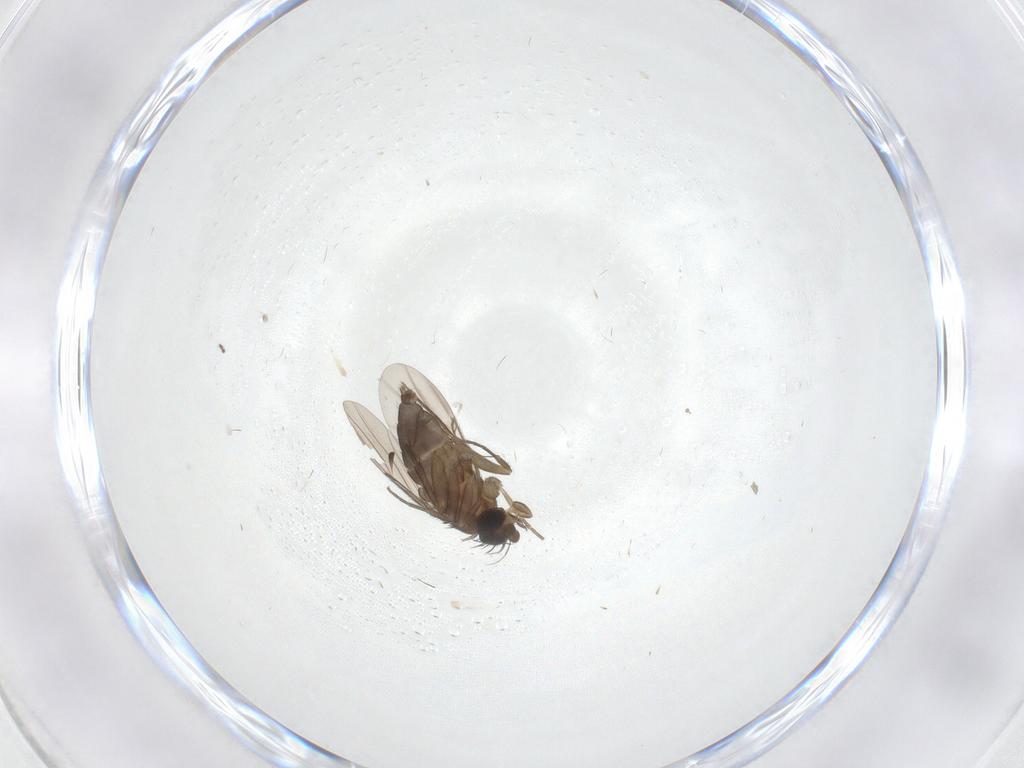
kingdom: Animalia
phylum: Arthropoda
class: Insecta
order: Diptera
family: Phoridae
